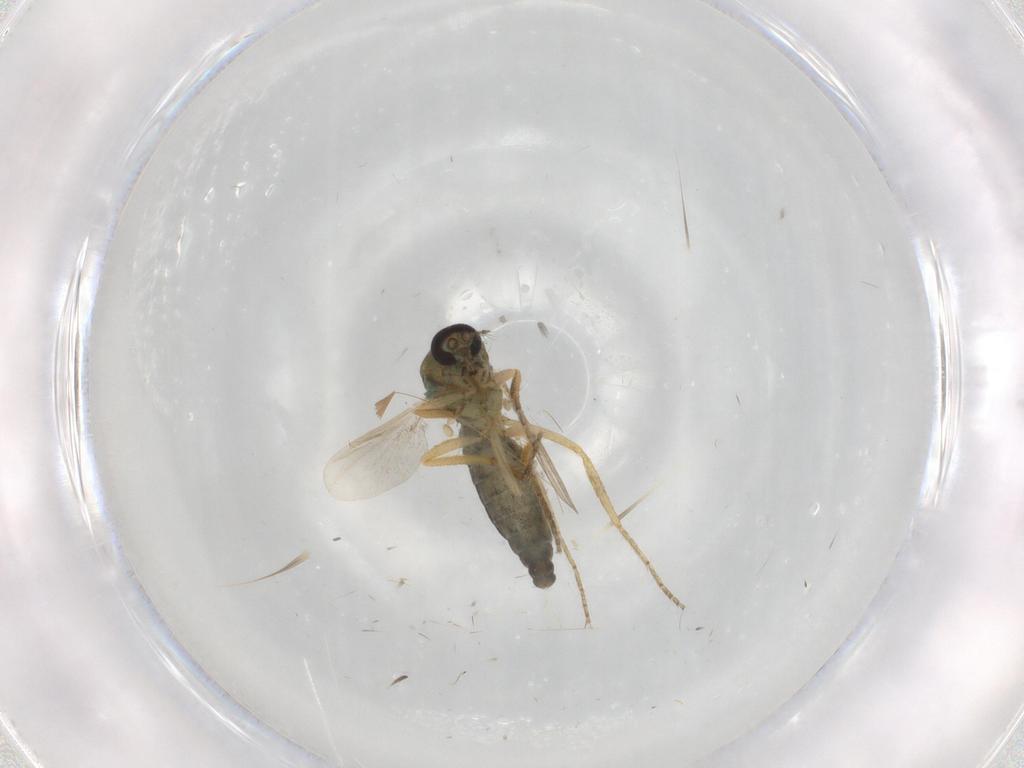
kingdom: Animalia
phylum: Arthropoda
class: Insecta
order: Diptera
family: Ceratopogonidae
